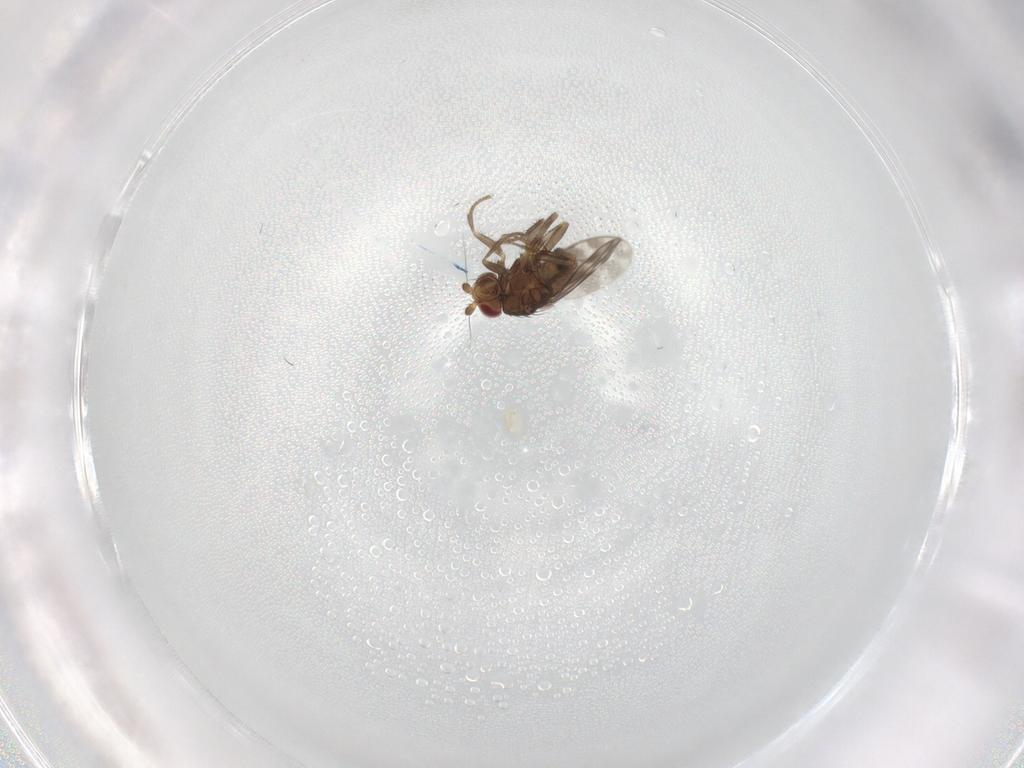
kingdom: Animalia
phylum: Arthropoda
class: Insecta
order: Diptera
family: Sphaeroceridae
